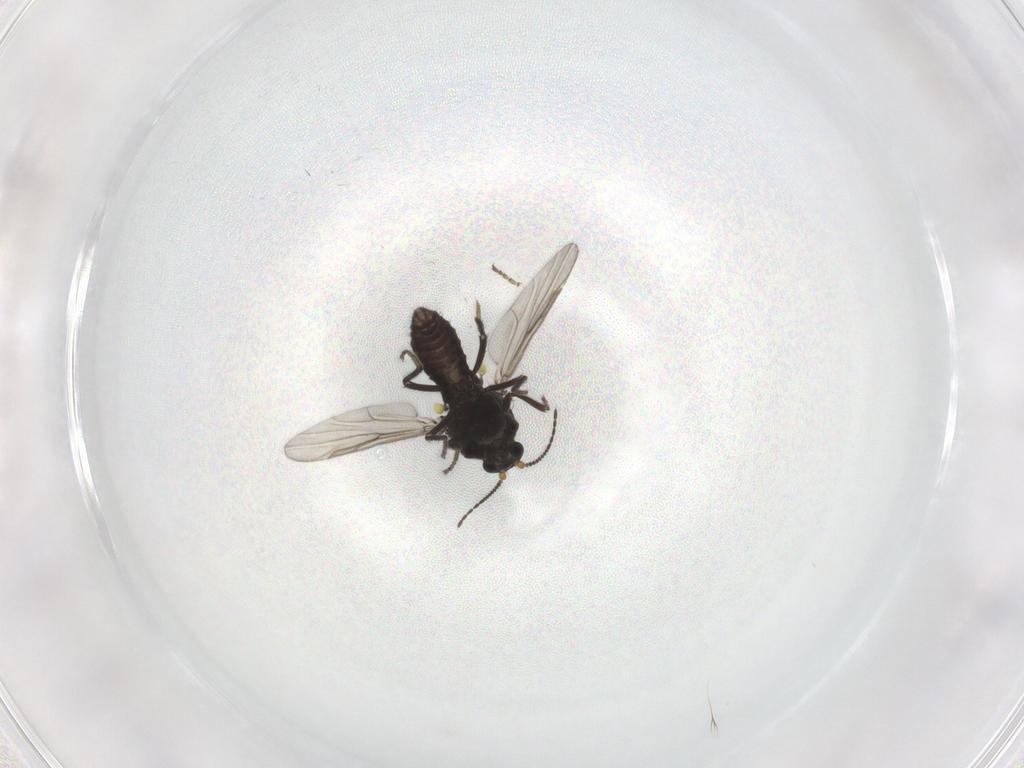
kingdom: Animalia
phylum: Arthropoda
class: Insecta
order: Diptera
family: Ceratopogonidae
